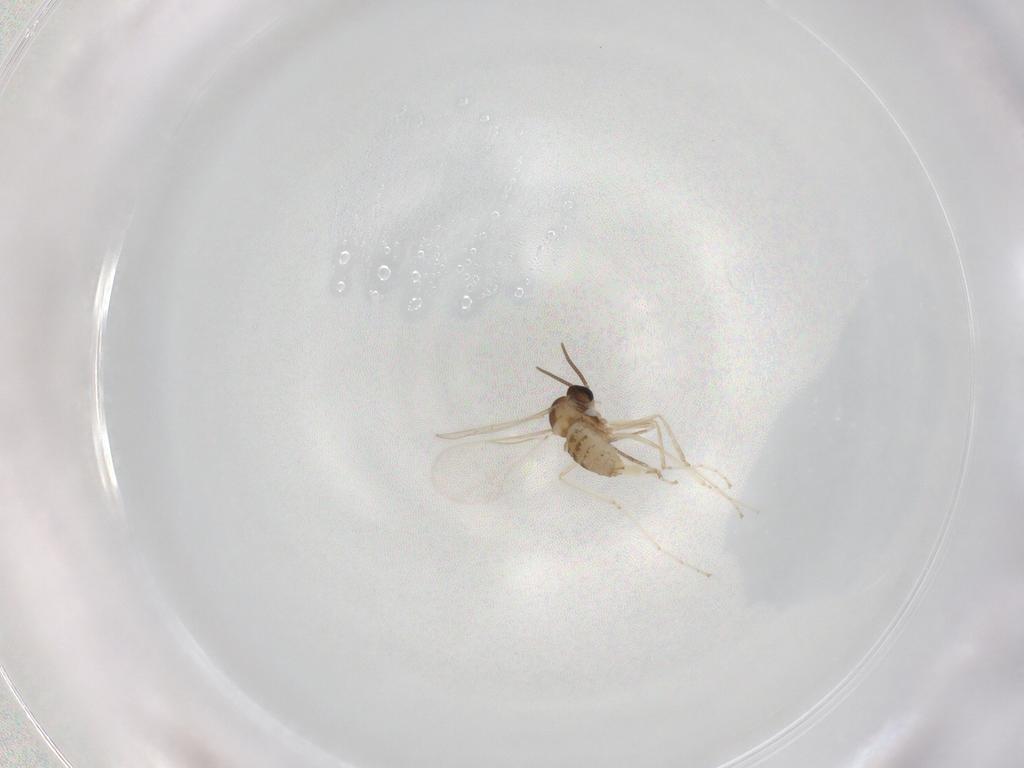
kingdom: Animalia
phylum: Arthropoda
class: Insecta
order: Diptera
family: Cecidomyiidae
